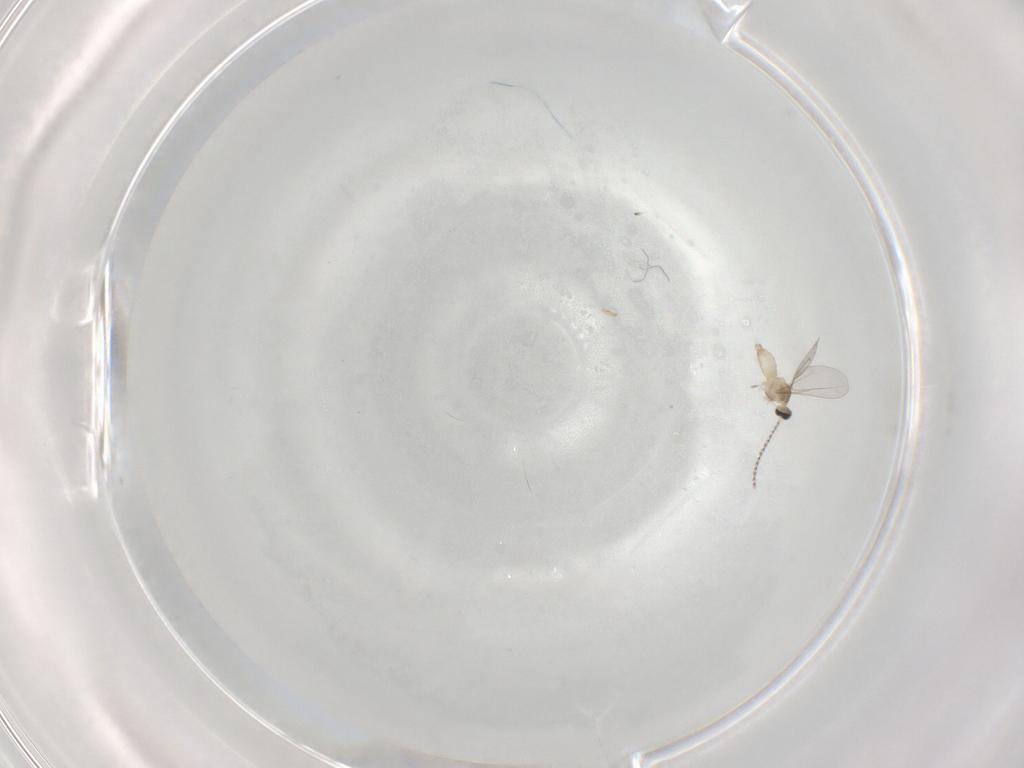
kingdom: Animalia
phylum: Arthropoda
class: Insecta
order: Diptera
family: Cecidomyiidae
